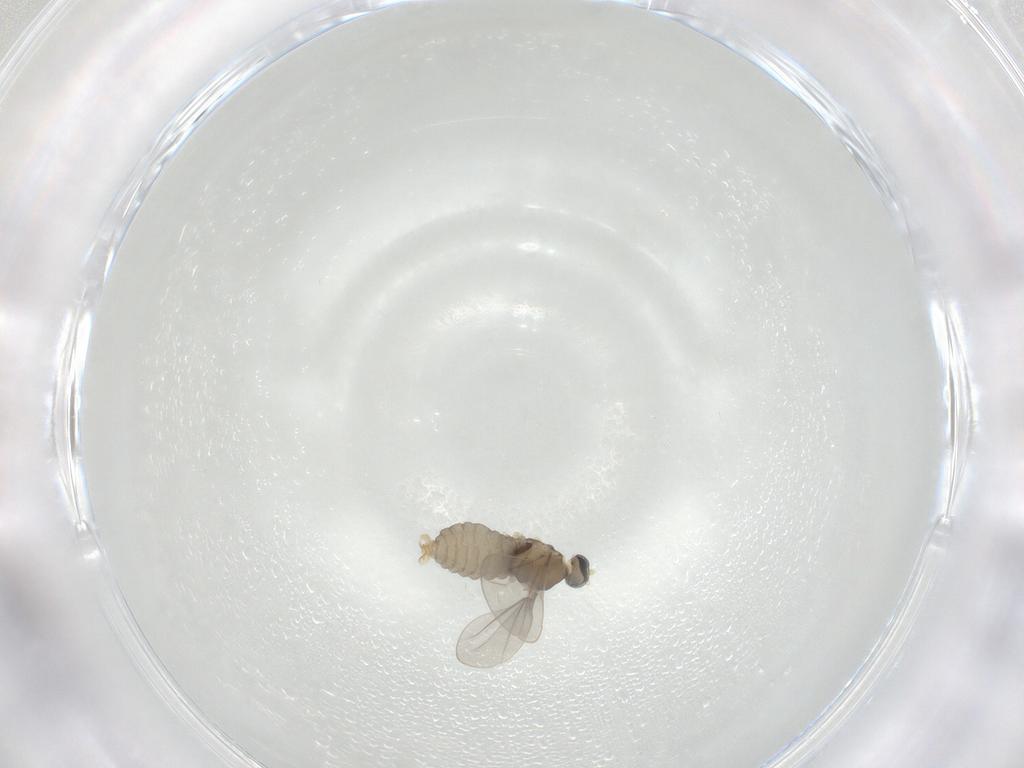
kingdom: Animalia
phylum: Arthropoda
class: Insecta
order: Diptera
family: Cecidomyiidae
